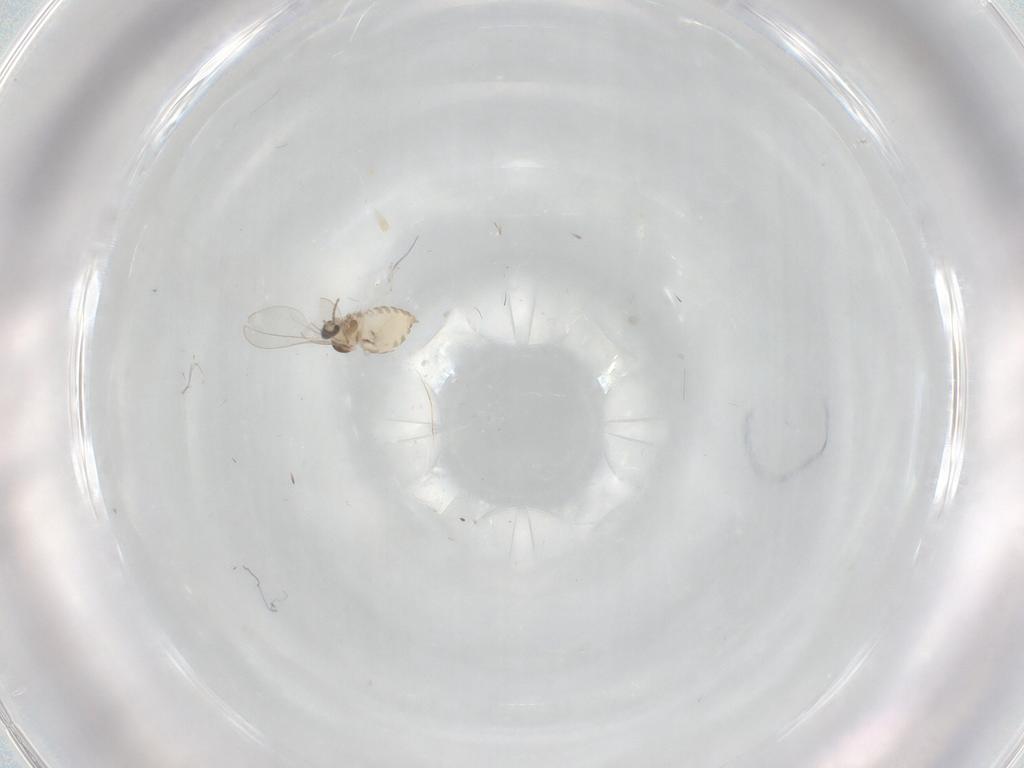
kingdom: Animalia
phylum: Arthropoda
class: Insecta
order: Diptera
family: Cecidomyiidae
